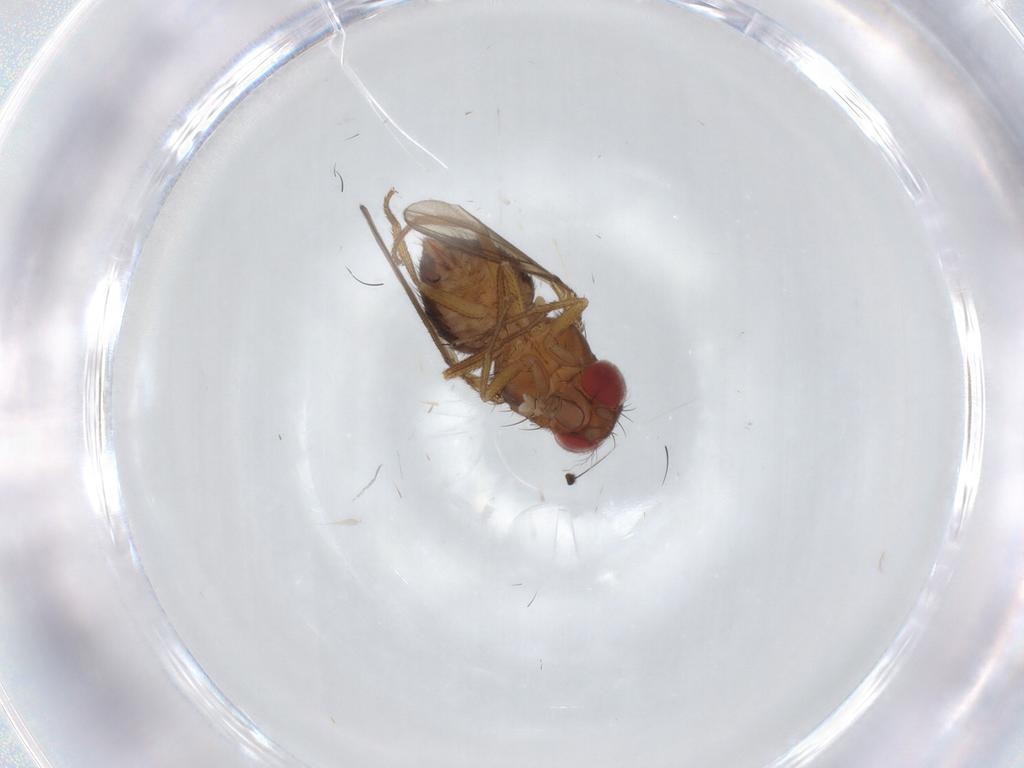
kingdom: Animalia
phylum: Arthropoda
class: Insecta
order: Diptera
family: Drosophilidae
